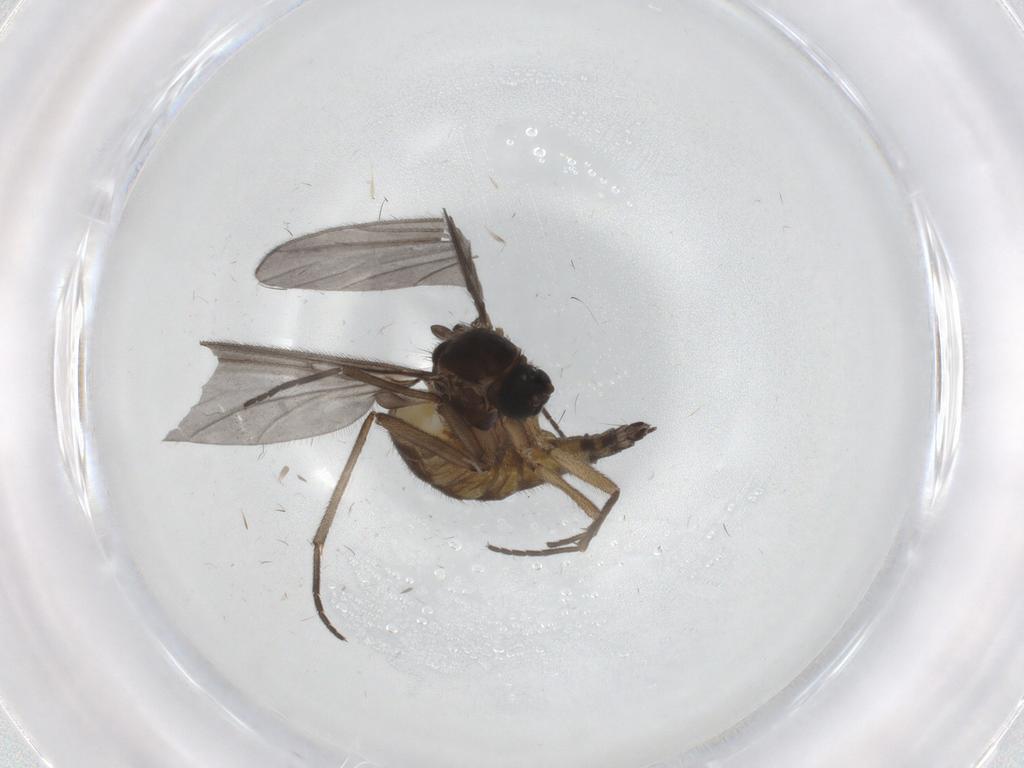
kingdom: Animalia
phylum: Arthropoda
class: Insecta
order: Diptera
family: Sciaridae
